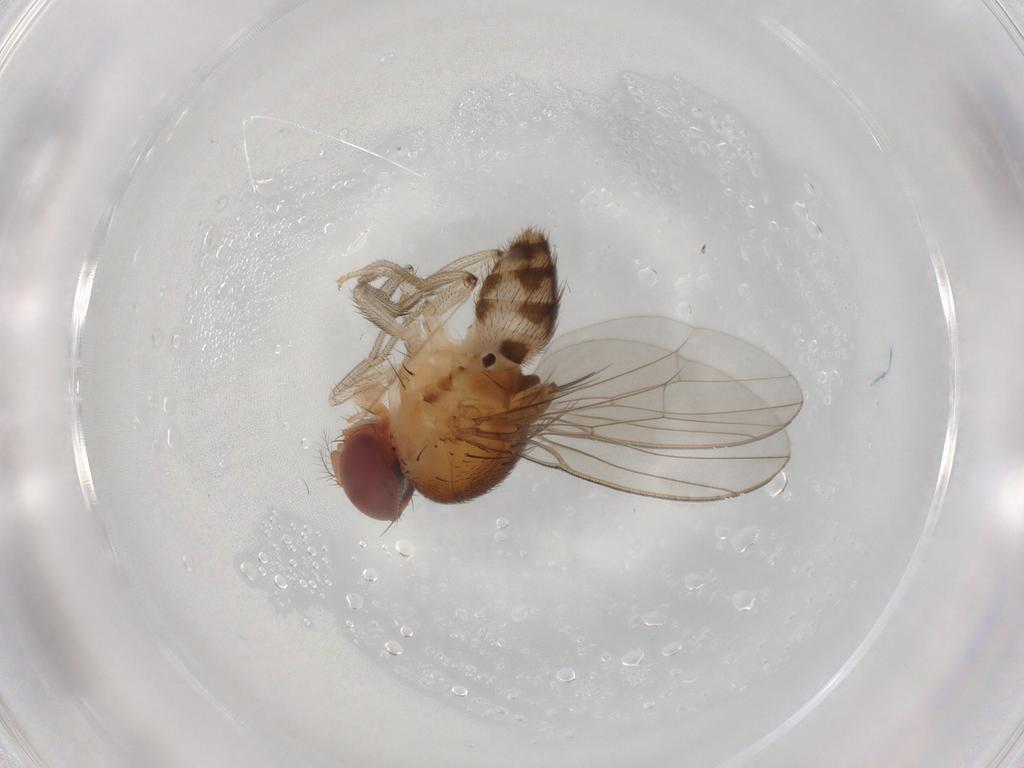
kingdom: Animalia
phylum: Arthropoda
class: Insecta
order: Diptera
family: Drosophilidae
